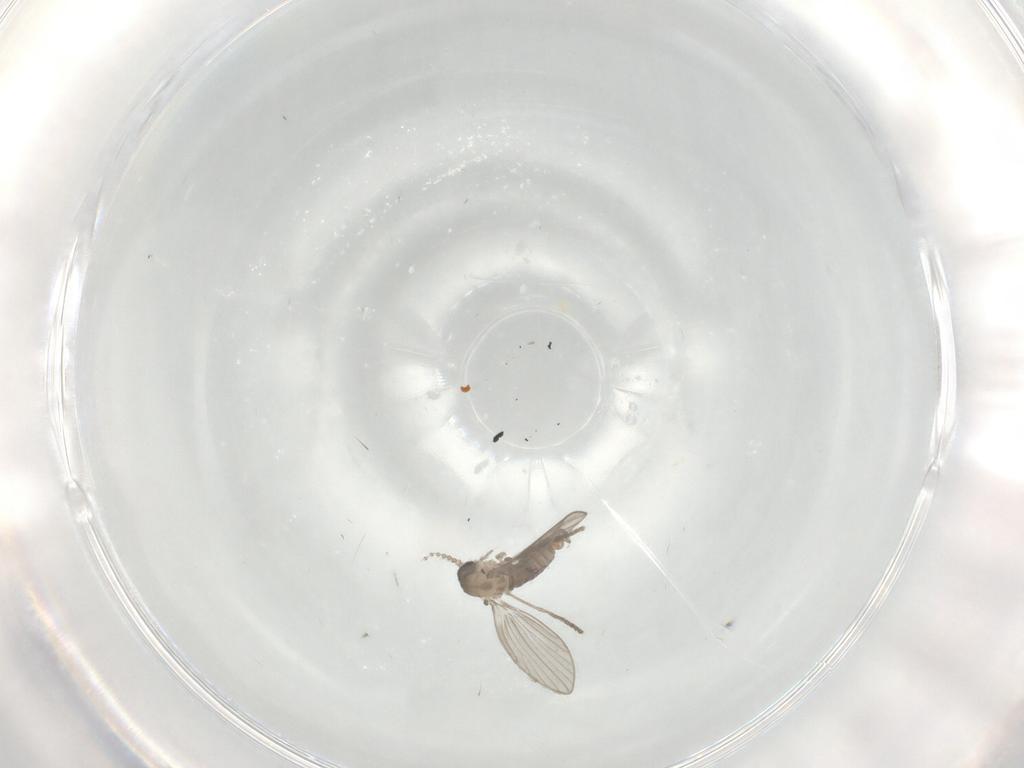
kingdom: Animalia
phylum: Arthropoda
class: Insecta
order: Diptera
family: Psychodidae
